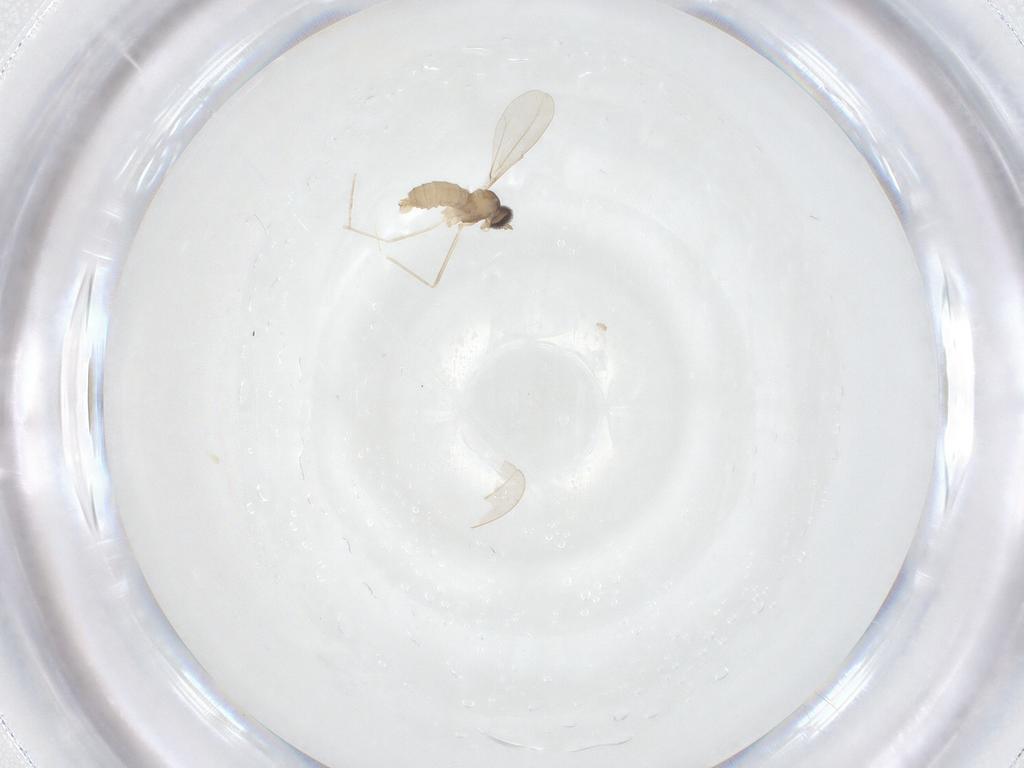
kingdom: Animalia
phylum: Arthropoda
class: Insecta
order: Diptera
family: Cecidomyiidae
